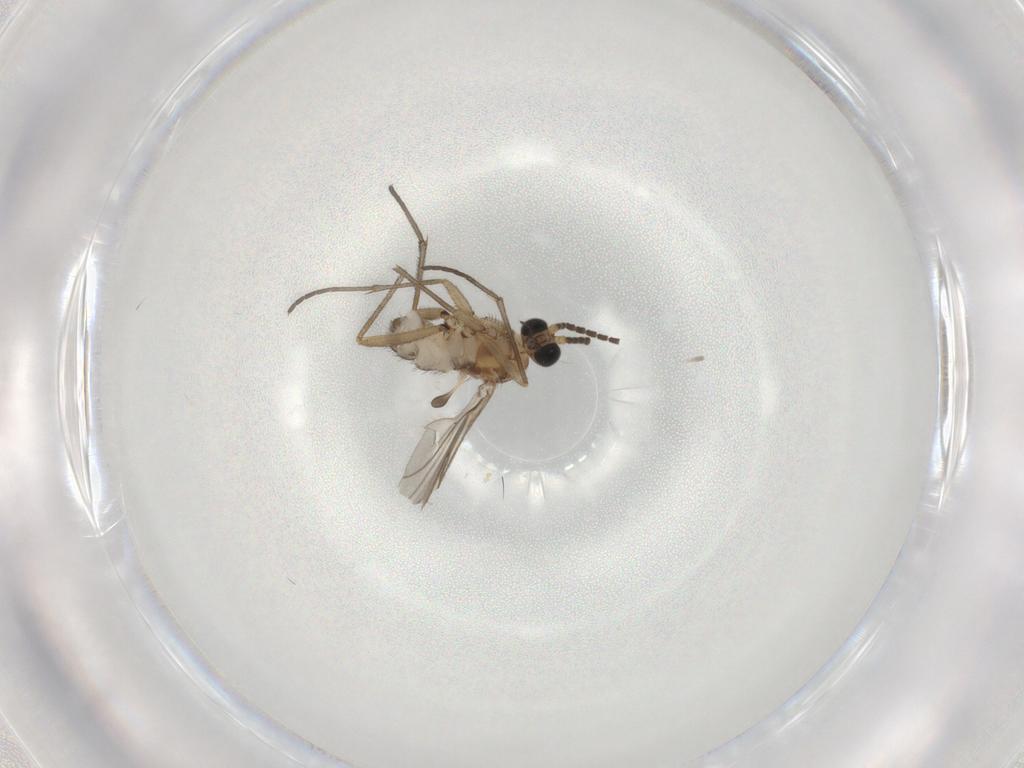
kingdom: Animalia
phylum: Arthropoda
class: Insecta
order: Diptera
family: Sciaridae
